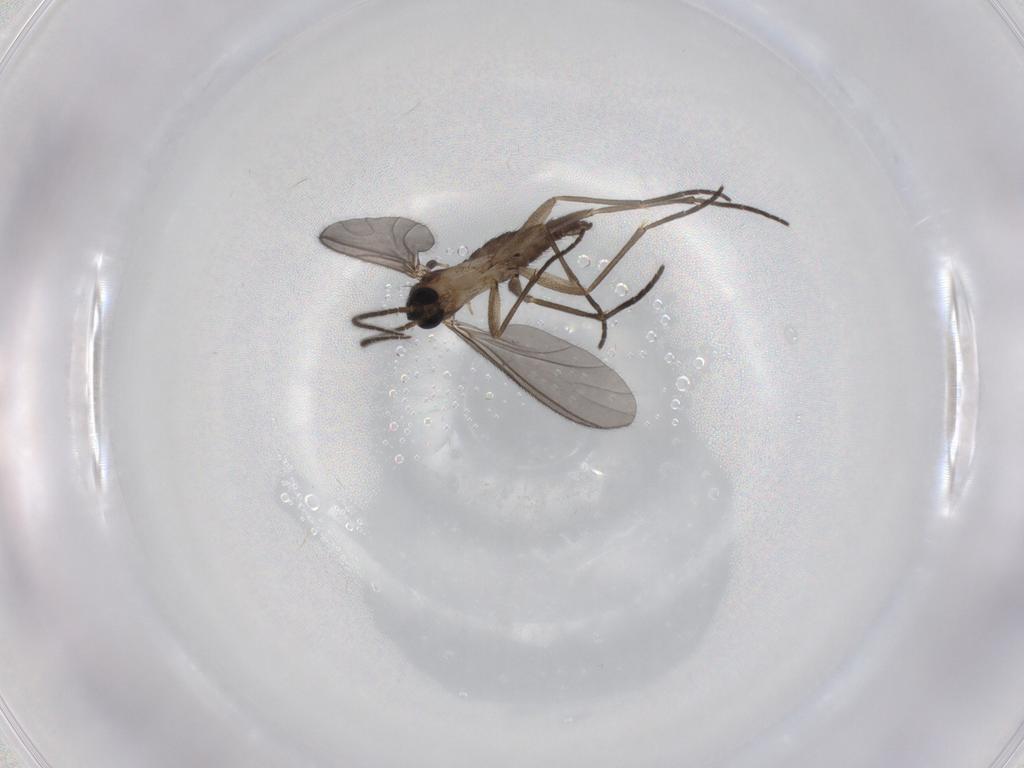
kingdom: Animalia
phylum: Arthropoda
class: Insecta
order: Diptera
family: Sciaridae
